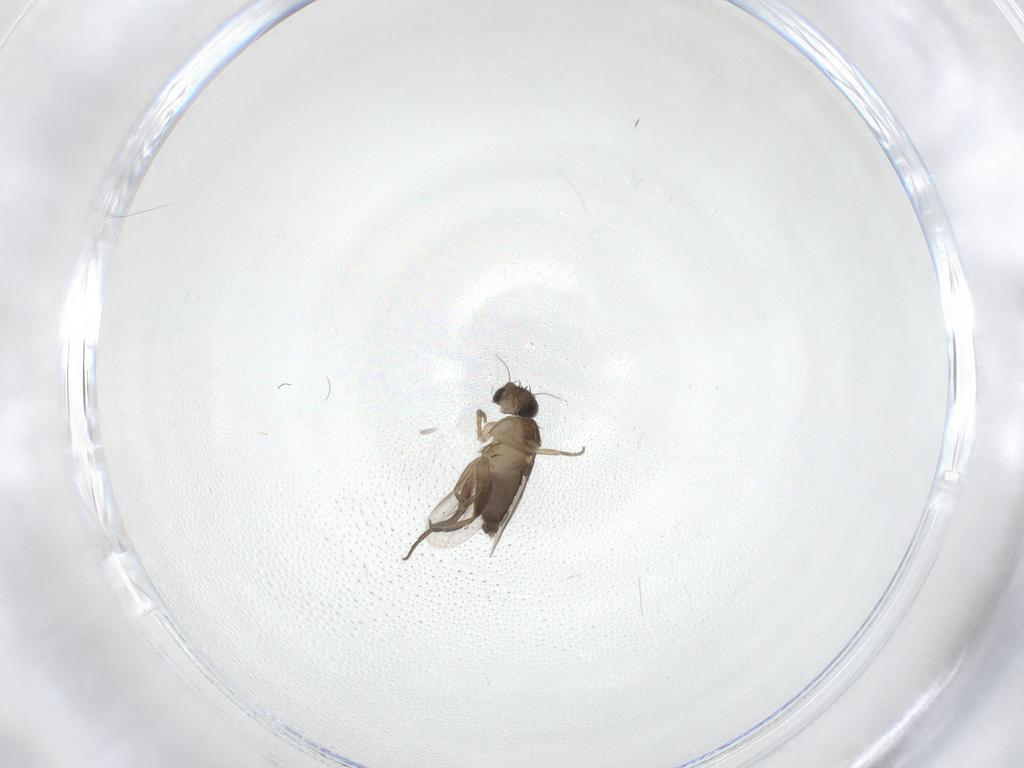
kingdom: Animalia
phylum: Arthropoda
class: Insecta
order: Diptera
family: Phoridae
